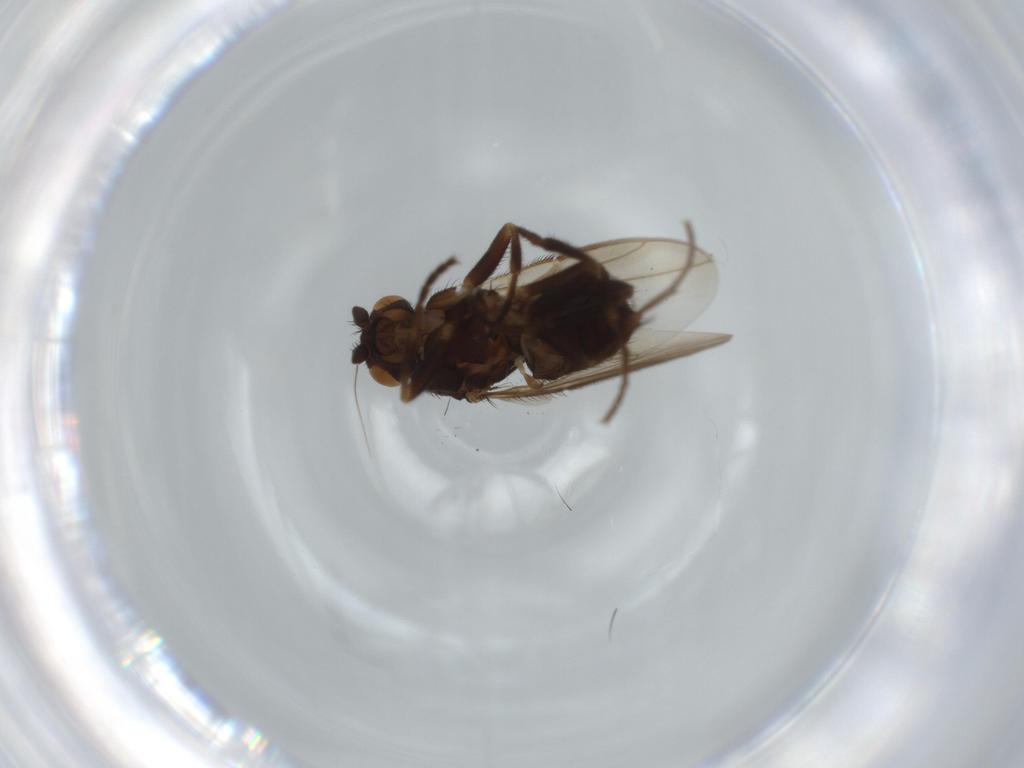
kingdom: Animalia
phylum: Arthropoda
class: Insecta
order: Diptera
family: Sphaeroceridae
